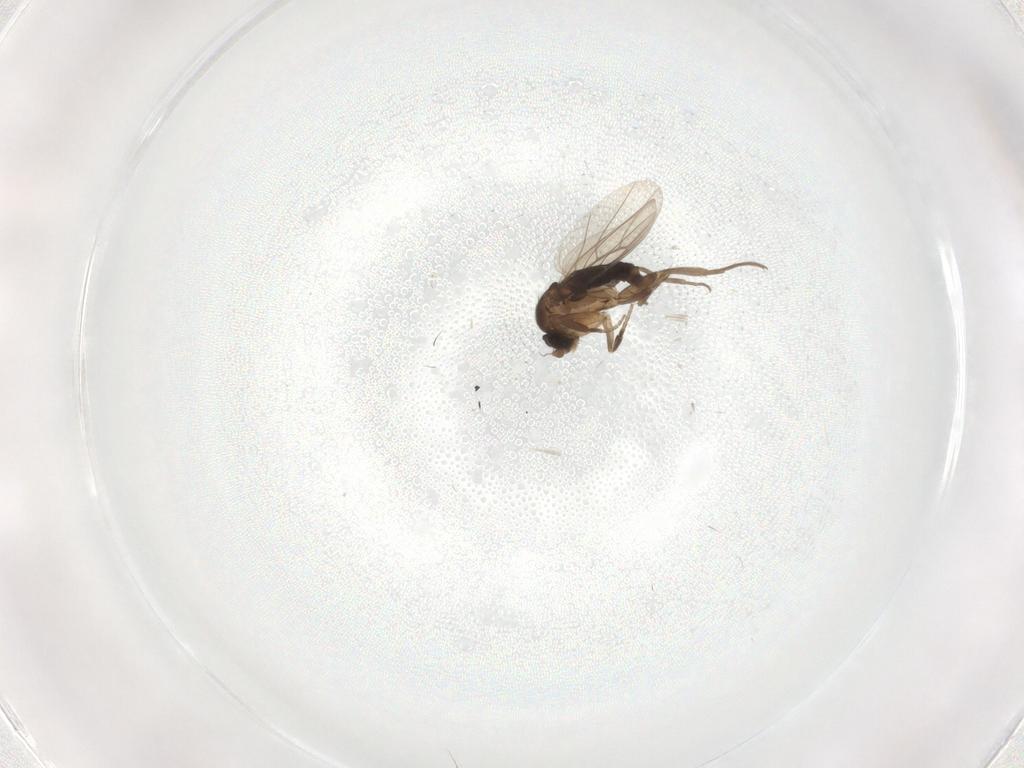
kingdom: Animalia
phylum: Arthropoda
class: Insecta
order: Diptera
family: Phoridae
